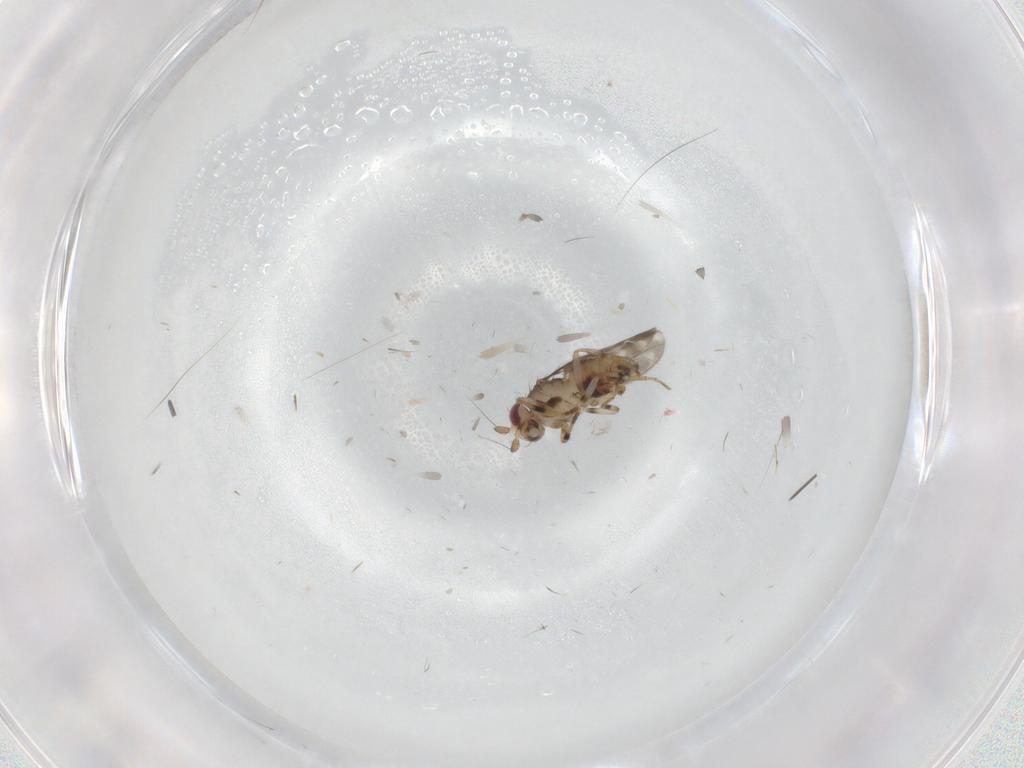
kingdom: Animalia
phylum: Arthropoda
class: Insecta
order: Diptera
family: Sphaeroceridae
